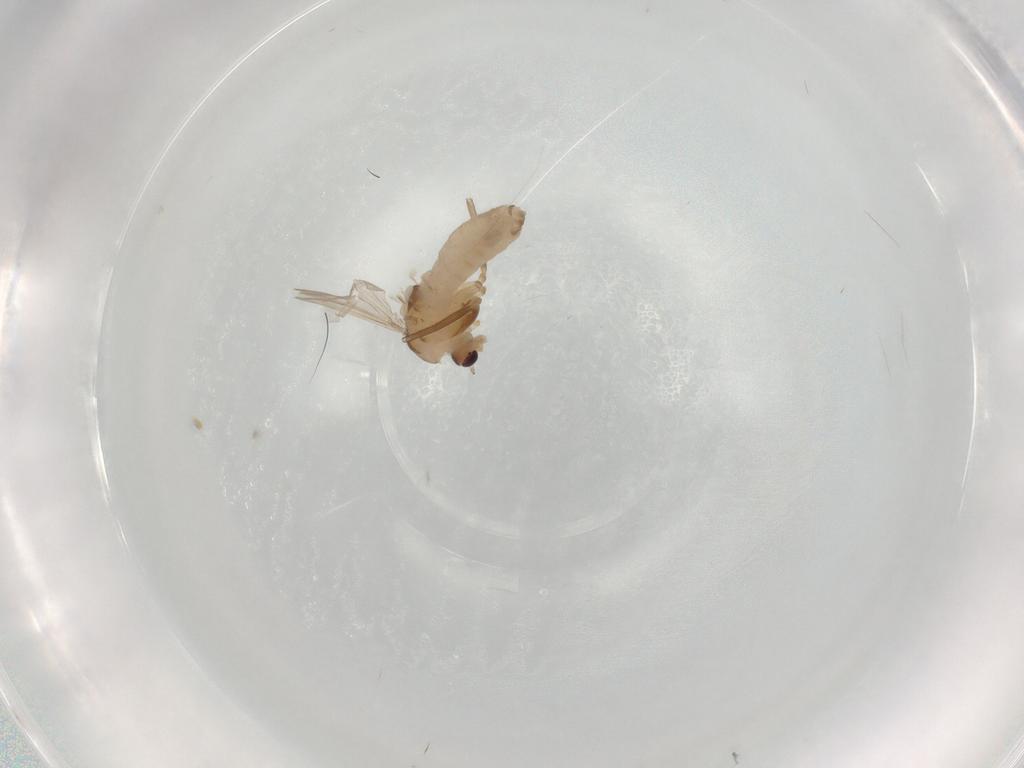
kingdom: Animalia
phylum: Arthropoda
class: Insecta
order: Diptera
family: Chironomidae
